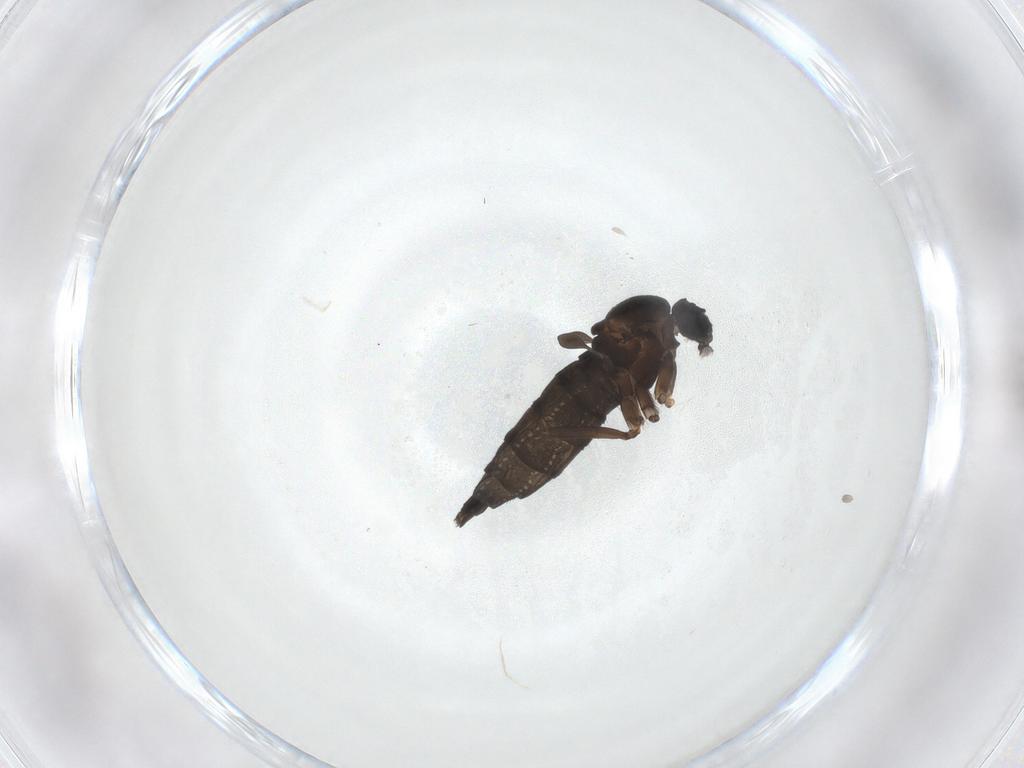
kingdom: Animalia
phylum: Arthropoda
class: Insecta
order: Diptera
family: Sciaridae
